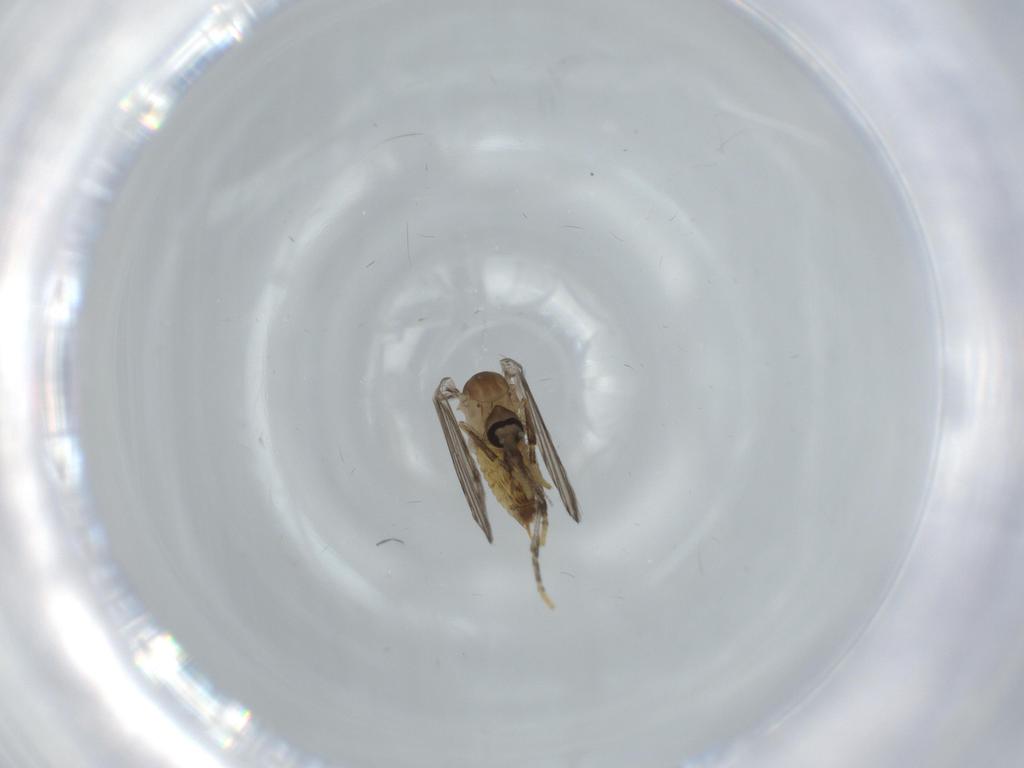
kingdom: Animalia
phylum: Arthropoda
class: Insecta
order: Diptera
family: Psychodidae
